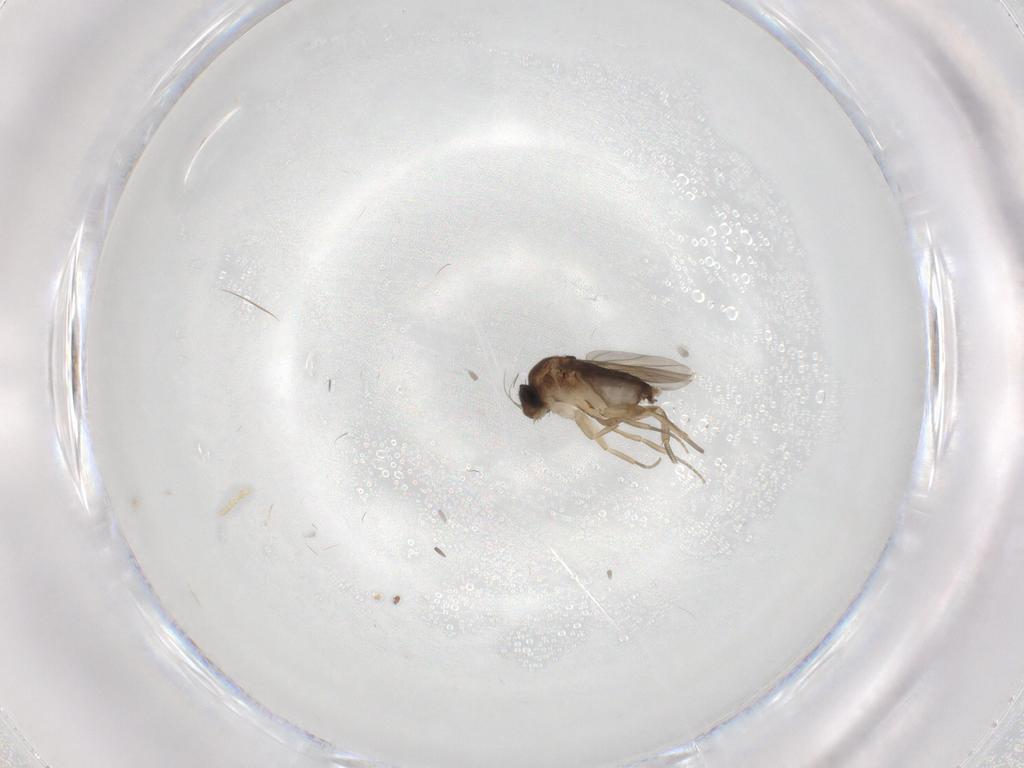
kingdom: Animalia
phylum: Arthropoda
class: Insecta
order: Diptera
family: Phoridae
